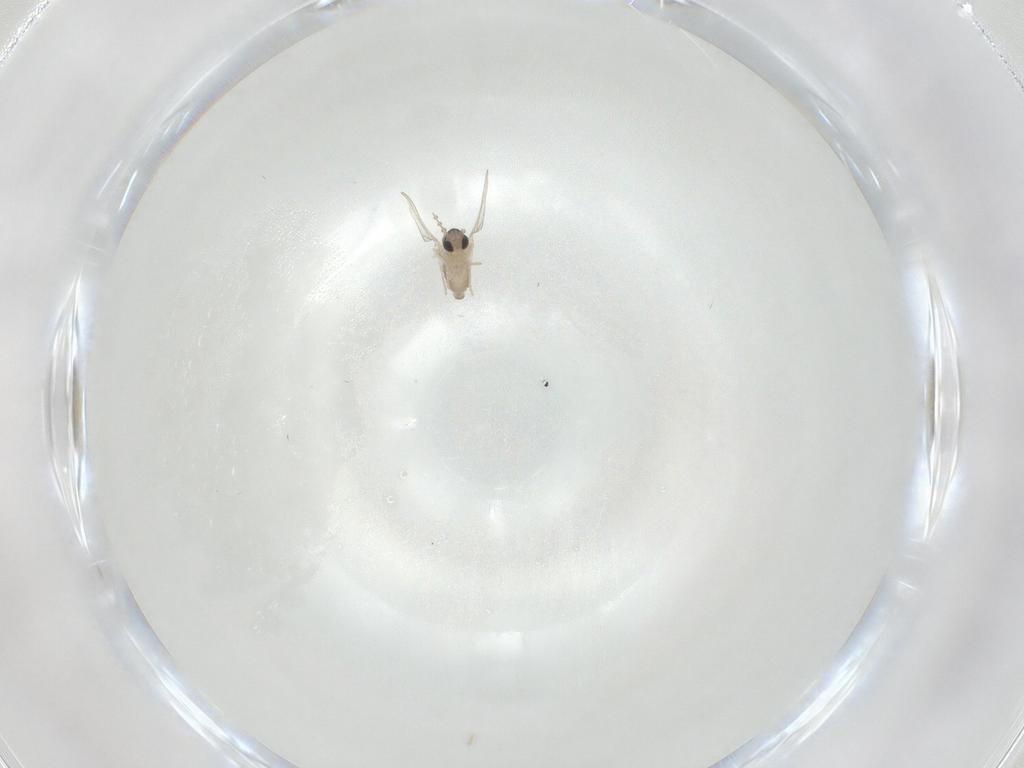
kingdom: Animalia
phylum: Arthropoda
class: Insecta
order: Diptera
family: Cecidomyiidae
